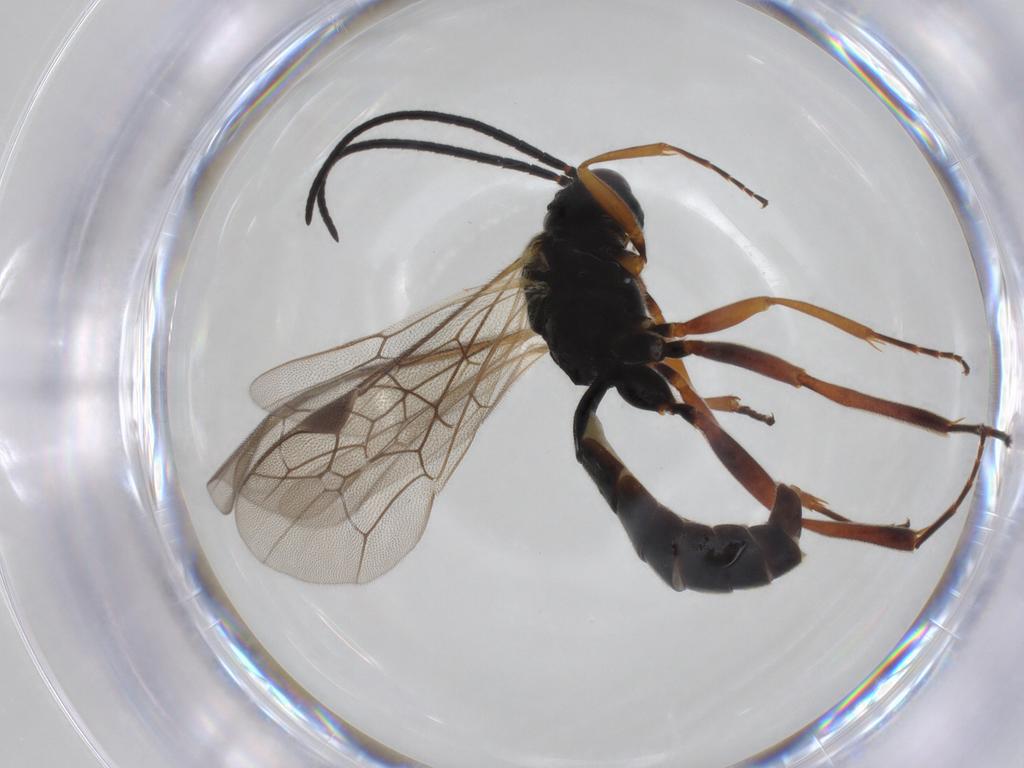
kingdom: Animalia
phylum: Arthropoda
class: Insecta
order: Hymenoptera
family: Ichneumonidae
